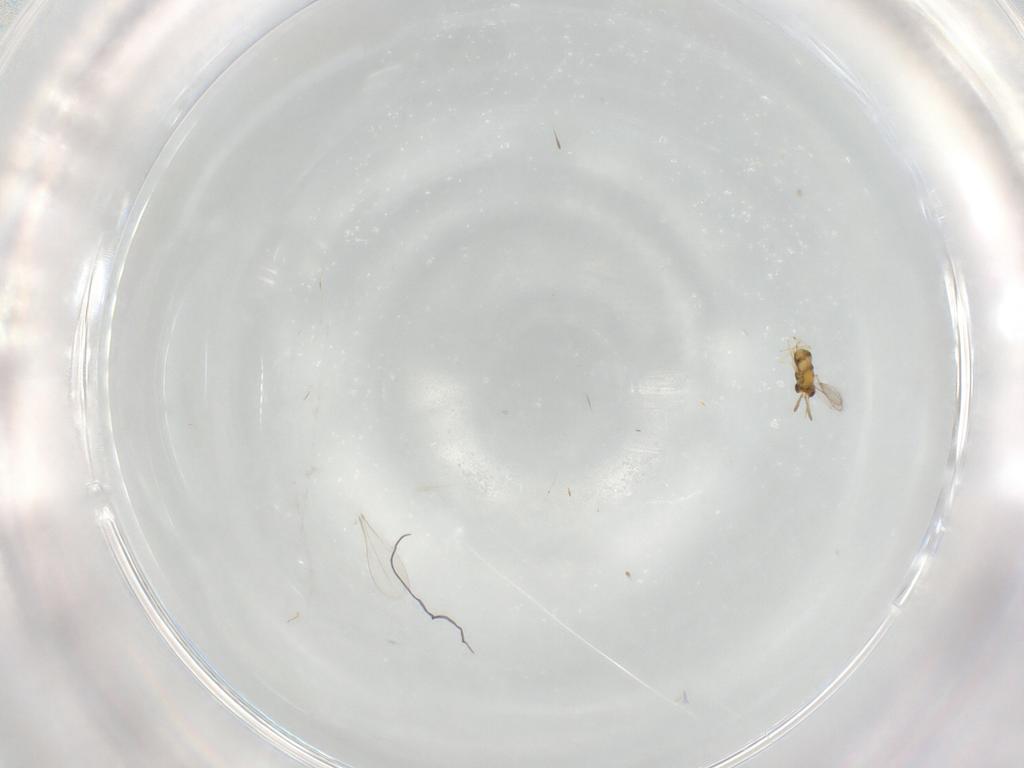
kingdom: Animalia
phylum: Arthropoda
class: Insecta
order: Hymenoptera
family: Aphelinidae
